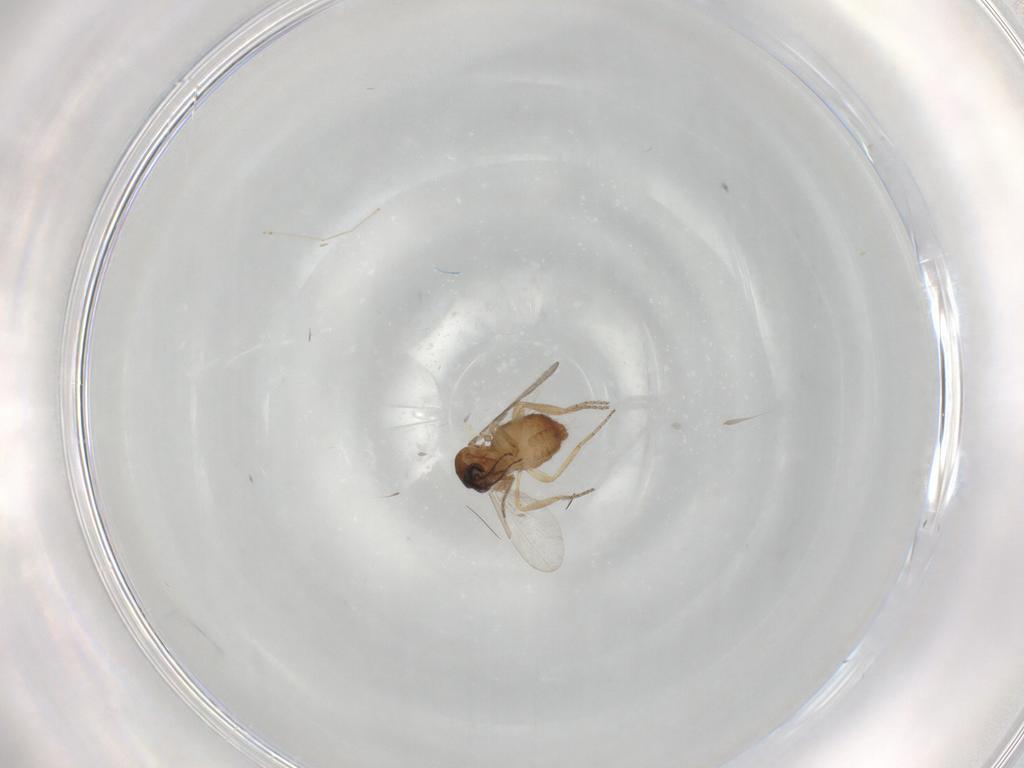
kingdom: Animalia
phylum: Arthropoda
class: Insecta
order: Diptera
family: Ceratopogonidae
